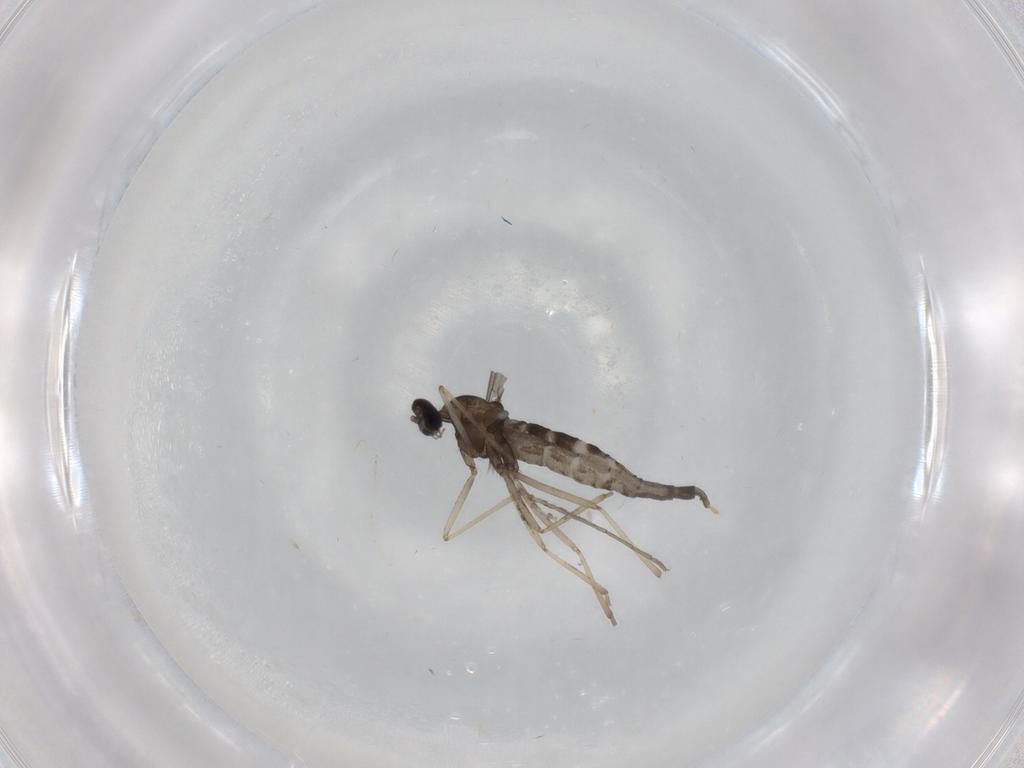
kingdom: Animalia
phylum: Arthropoda
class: Insecta
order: Diptera
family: Cecidomyiidae
